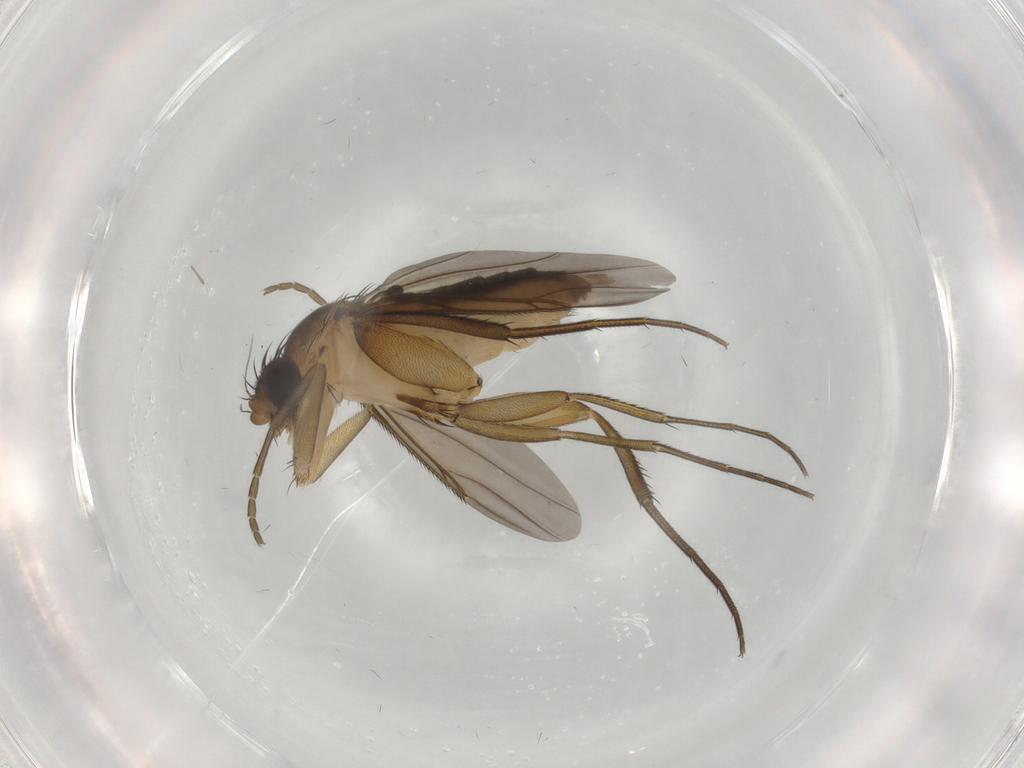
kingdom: Animalia
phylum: Arthropoda
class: Insecta
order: Diptera
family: Phoridae
